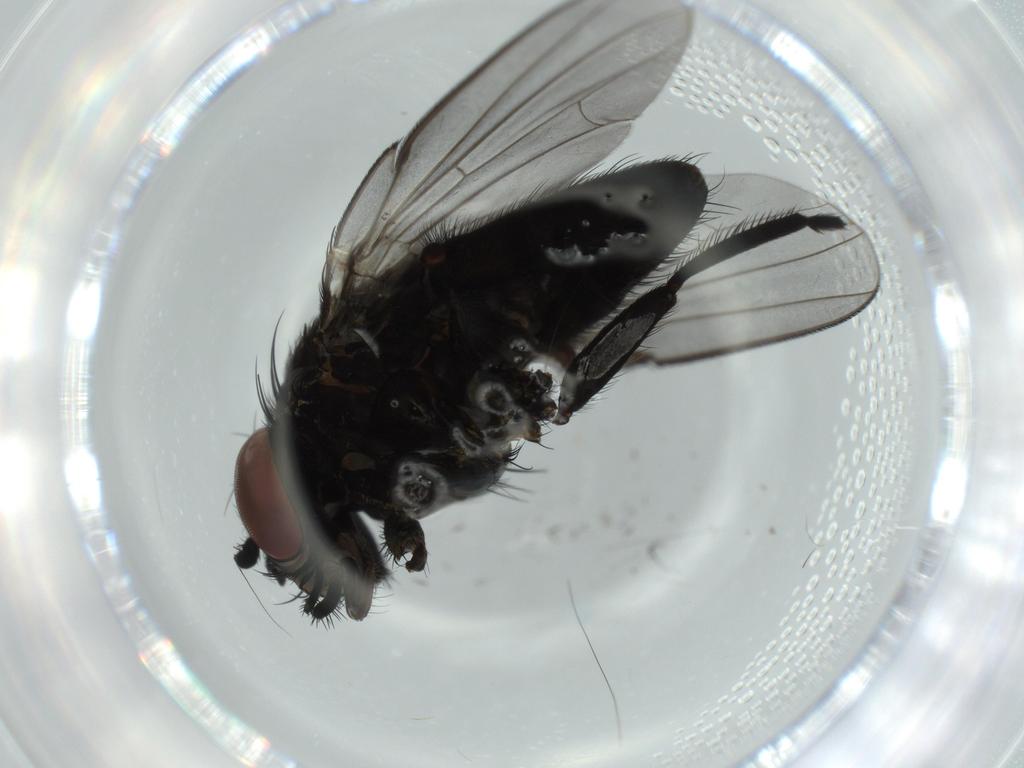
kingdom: Animalia
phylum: Arthropoda
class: Insecta
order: Diptera
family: Milichiidae
